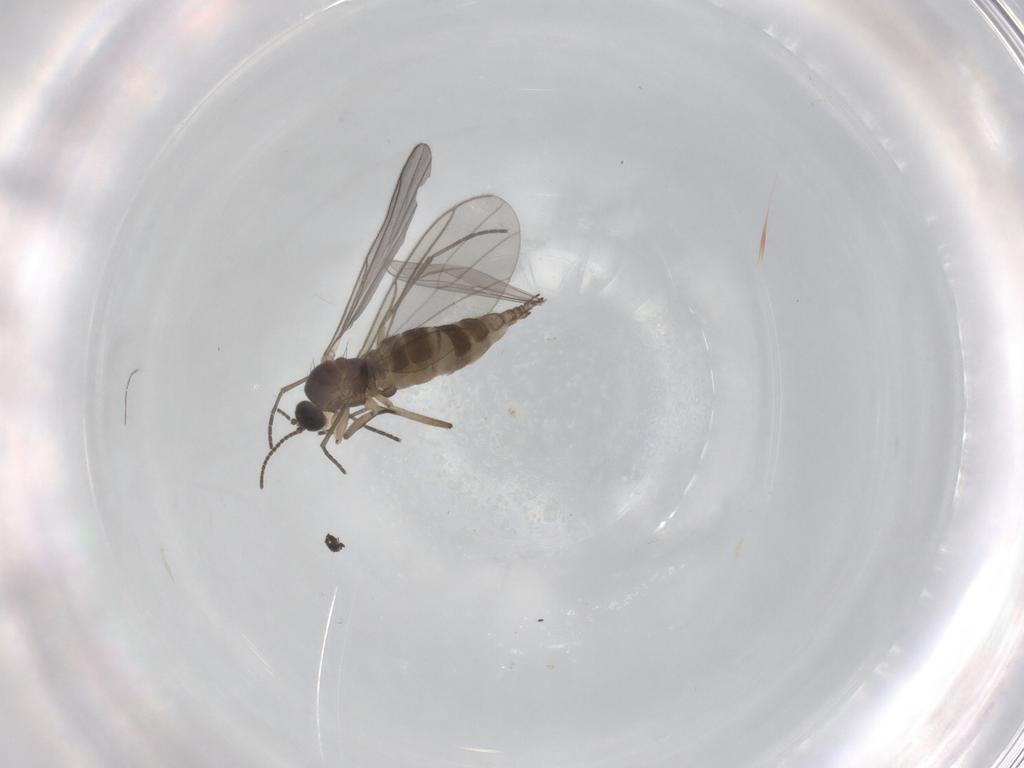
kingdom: Animalia
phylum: Arthropoda
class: Insecta
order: Diptera
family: Sciaridae
